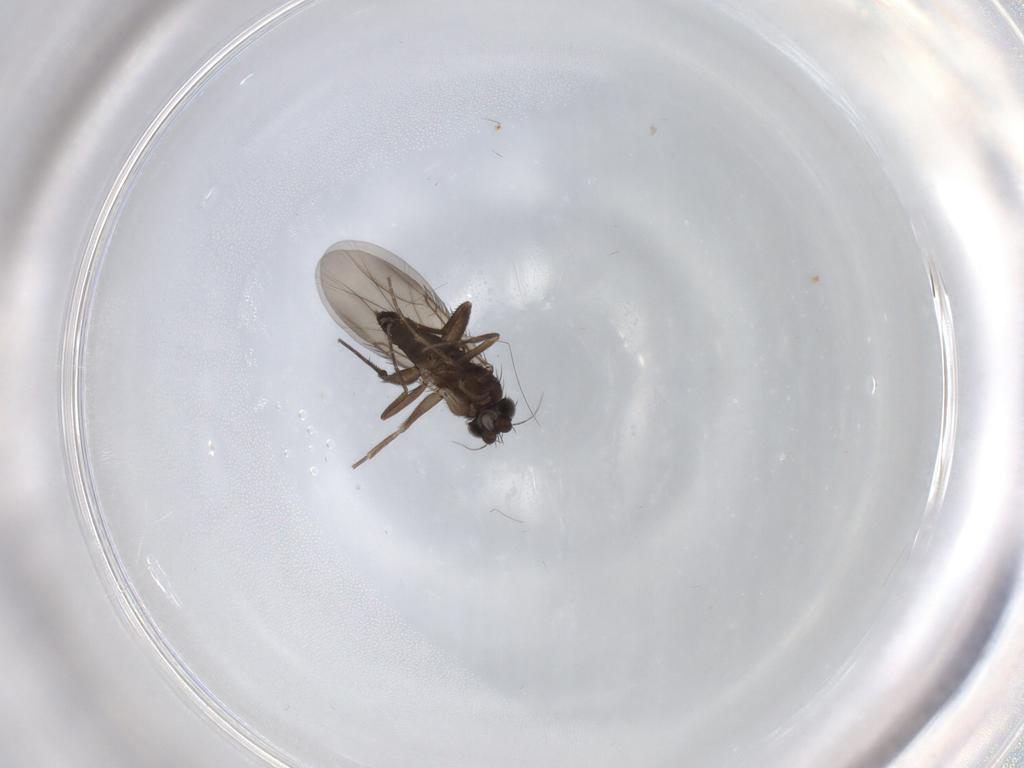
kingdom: Animalia
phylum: Arthropoda
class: Insecta
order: Diptera
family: Phoridae
